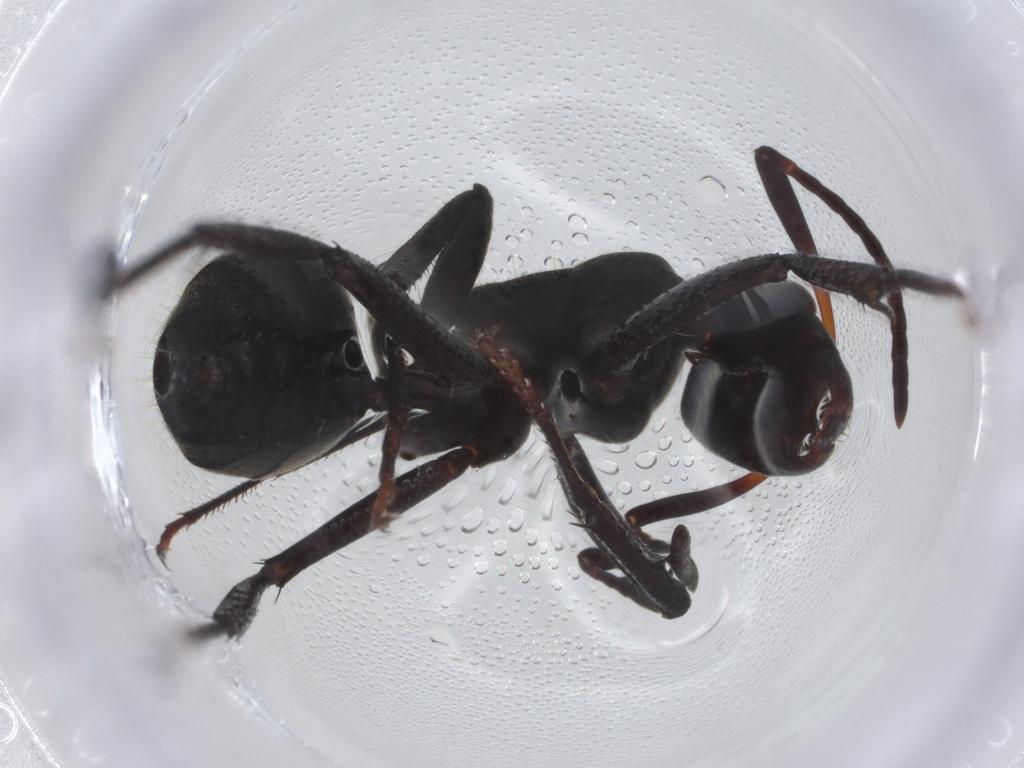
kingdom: Animalia
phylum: Arthropoda
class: Insecta
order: Hymenoptera
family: Formicidae
